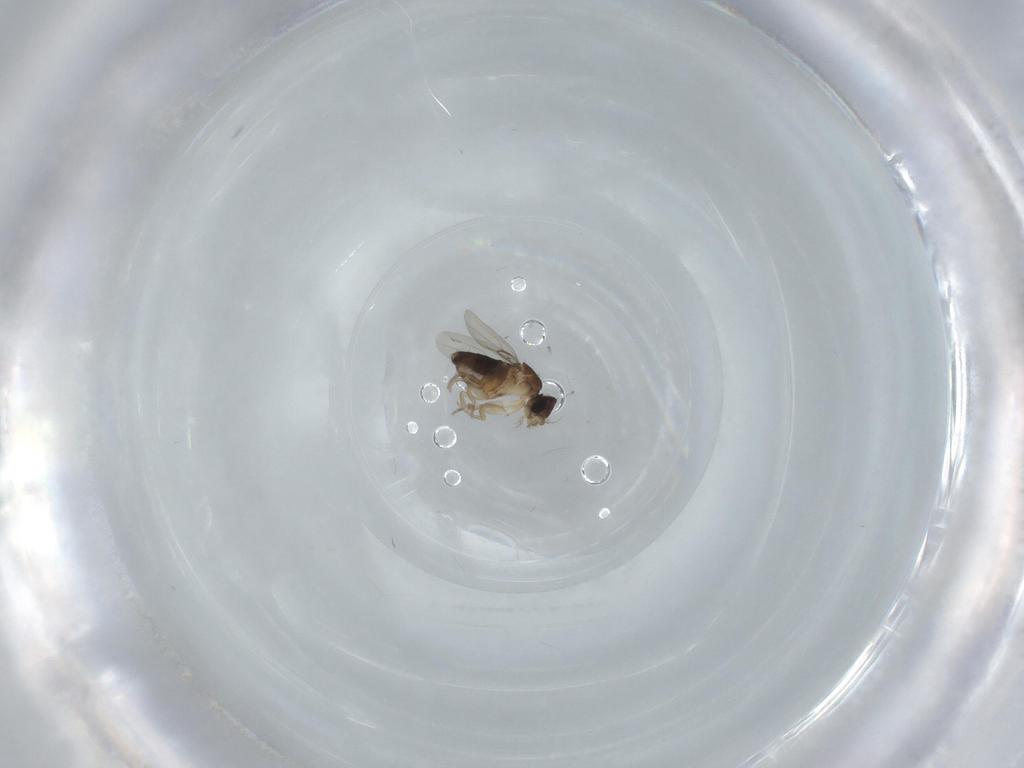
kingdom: Animalia
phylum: Arthropoda
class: Insecta
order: Diptera
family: Phoridae
